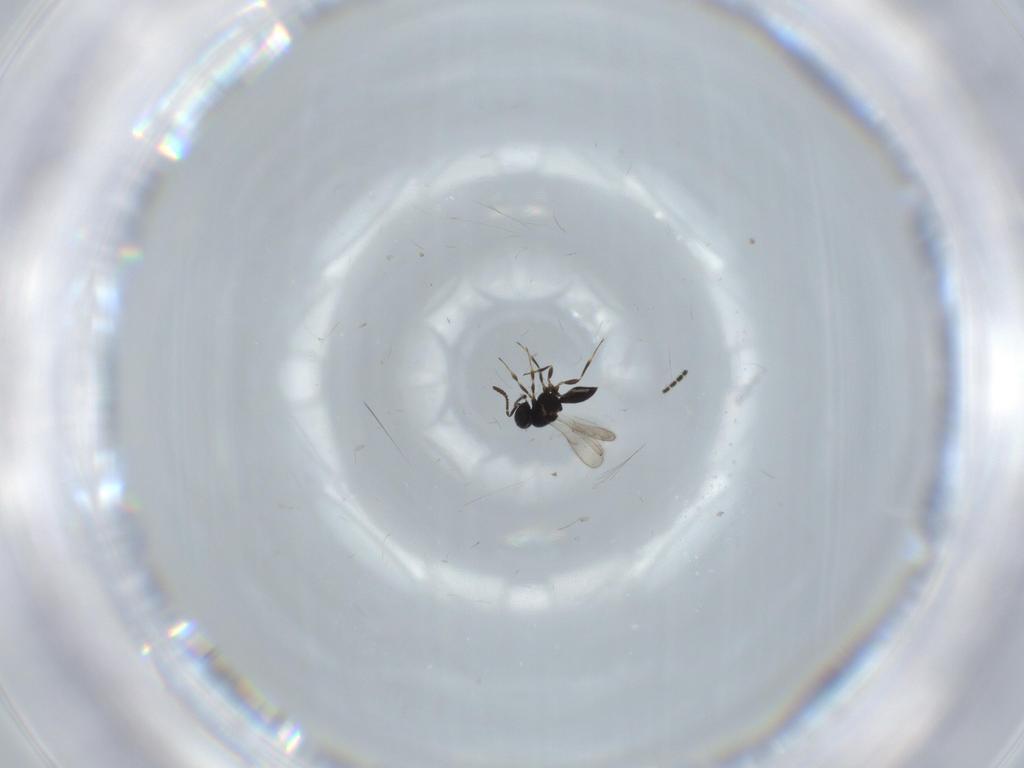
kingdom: Animalia
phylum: Arthropoda
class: Insecta
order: Hymenoptera
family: Scelionidae
